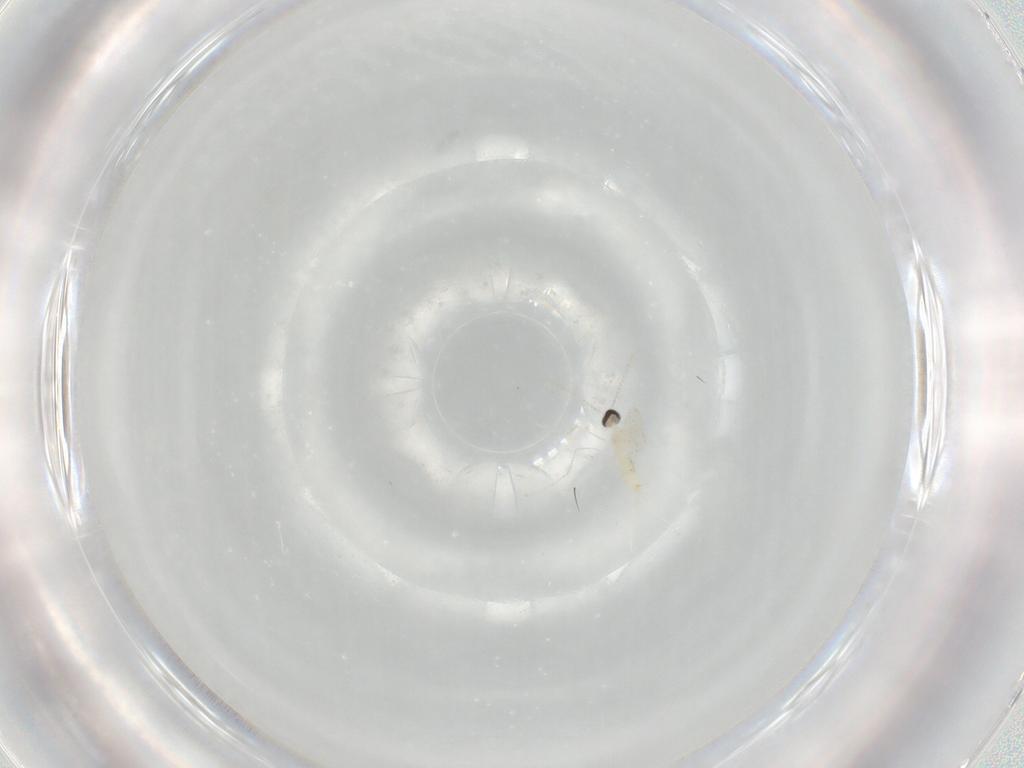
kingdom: Animalia
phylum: Arthropoda
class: Insecta
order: Diptera
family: Cecidomyiidae
